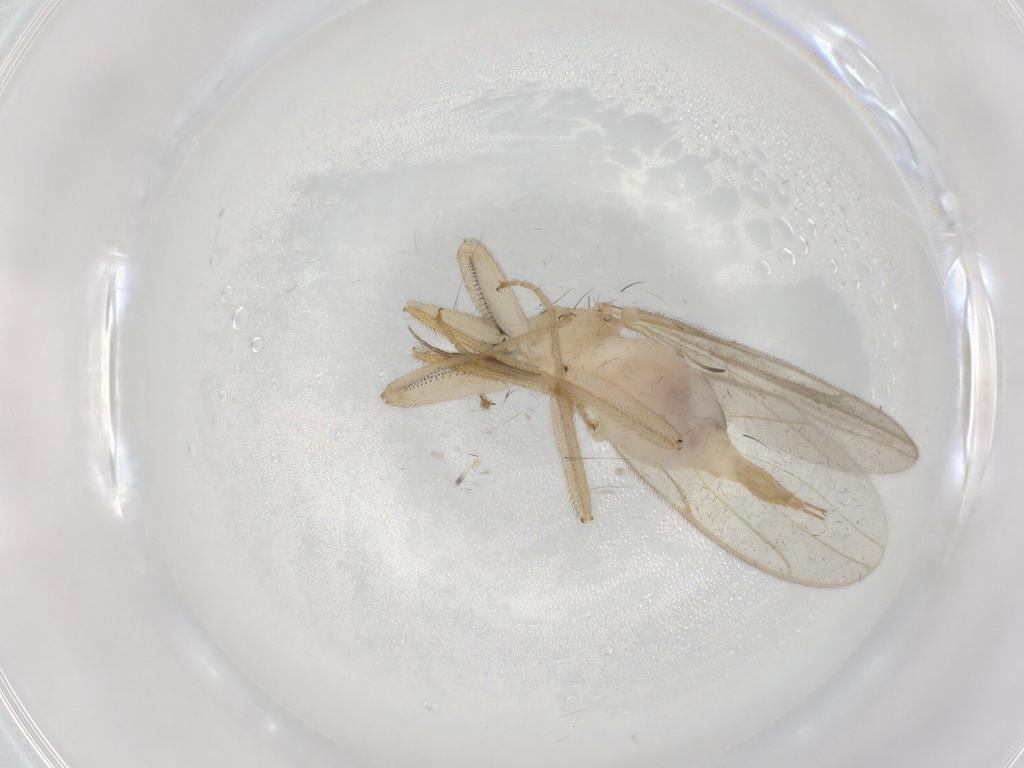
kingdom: Animalia
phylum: Arthropoda
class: Insecta
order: Diptera
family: Hybotidae
